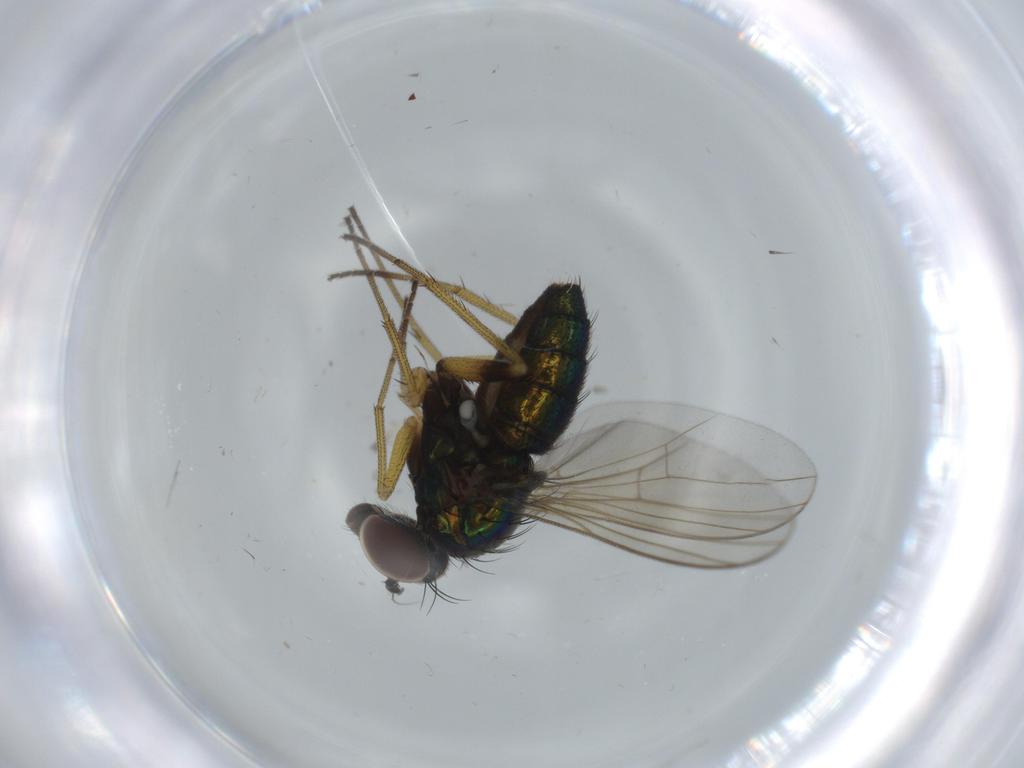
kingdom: Animalia
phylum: Arthropoda
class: Insecta
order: Diptera
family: Dolichopodidae
